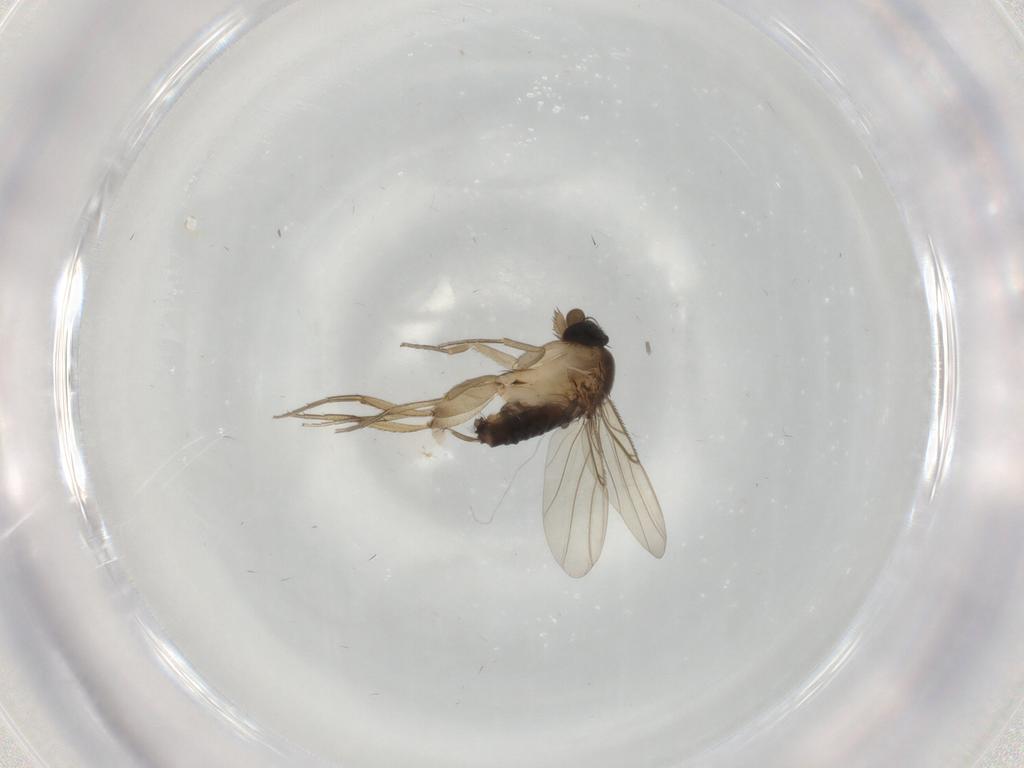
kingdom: Animalia
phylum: Arthropoda
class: Insecta
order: Diptera
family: Phoridae
